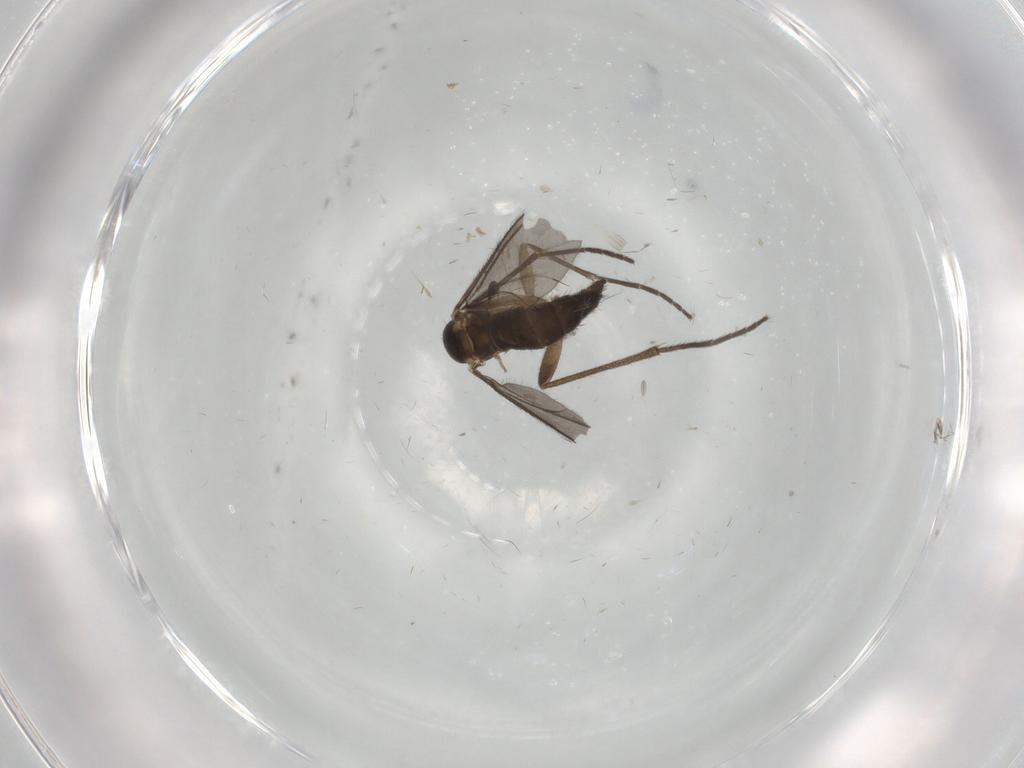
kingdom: Animalia
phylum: Arthropoda
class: Insecta
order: Diptera
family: Sciaridae
